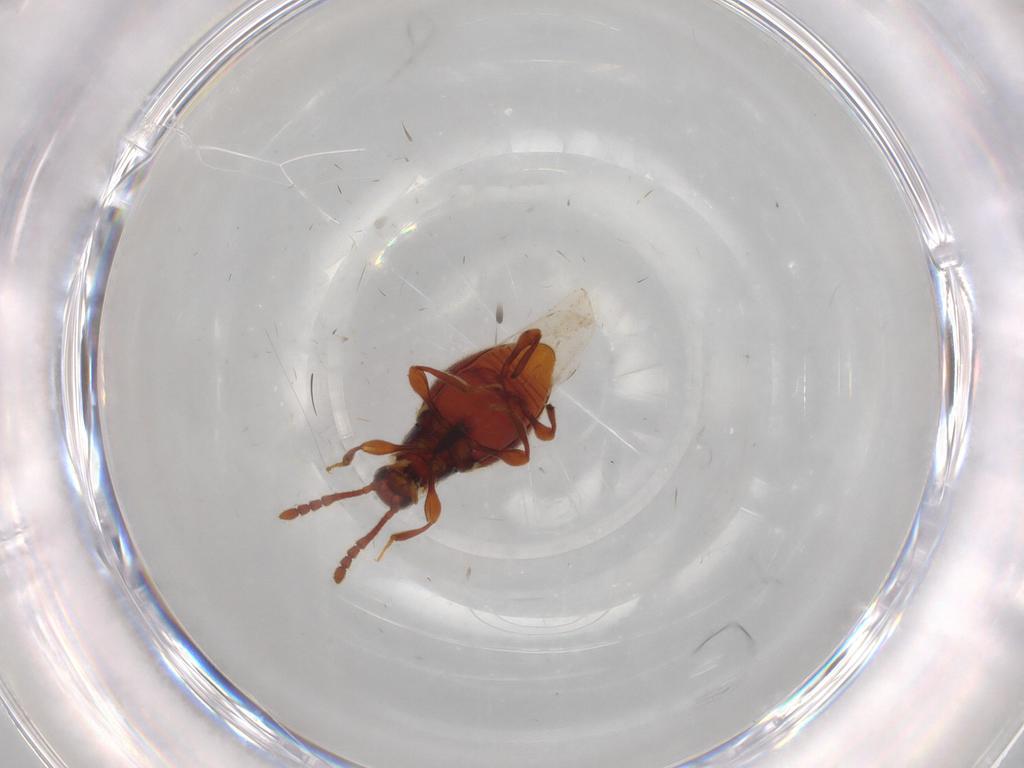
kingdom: Animalia
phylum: Arthropoda
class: Insecta
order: Coleoptera
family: Staphylinidae
